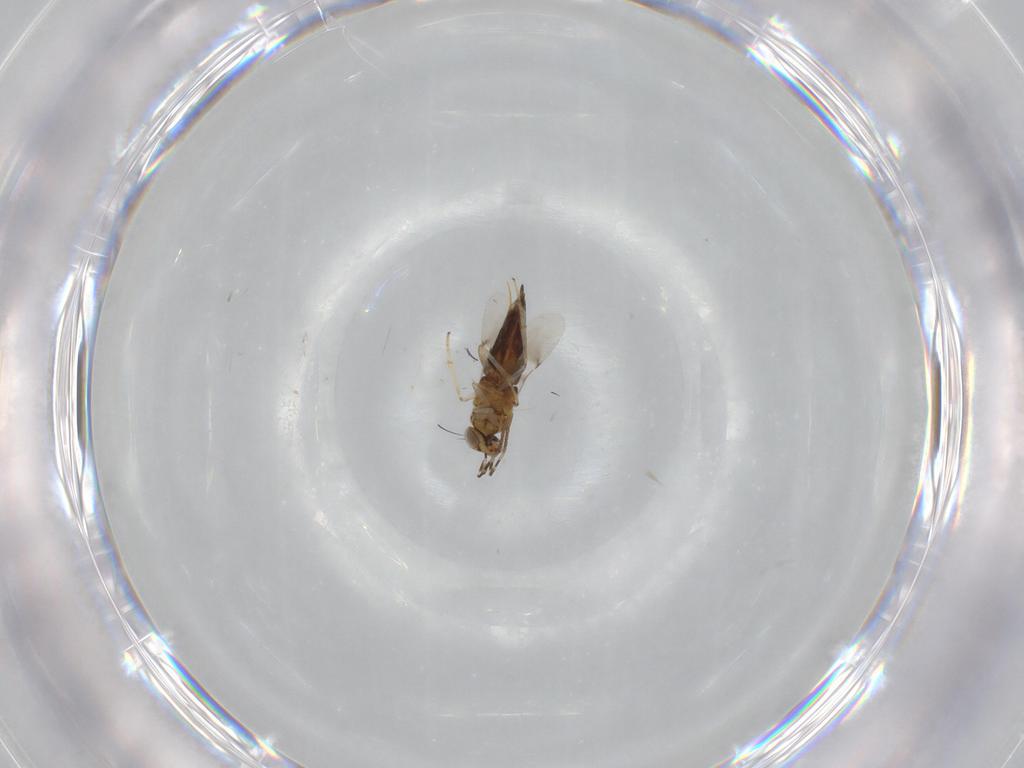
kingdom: Animalia
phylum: Arthropoda
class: Insecta
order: Hymenoptera
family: Encyrtidae
